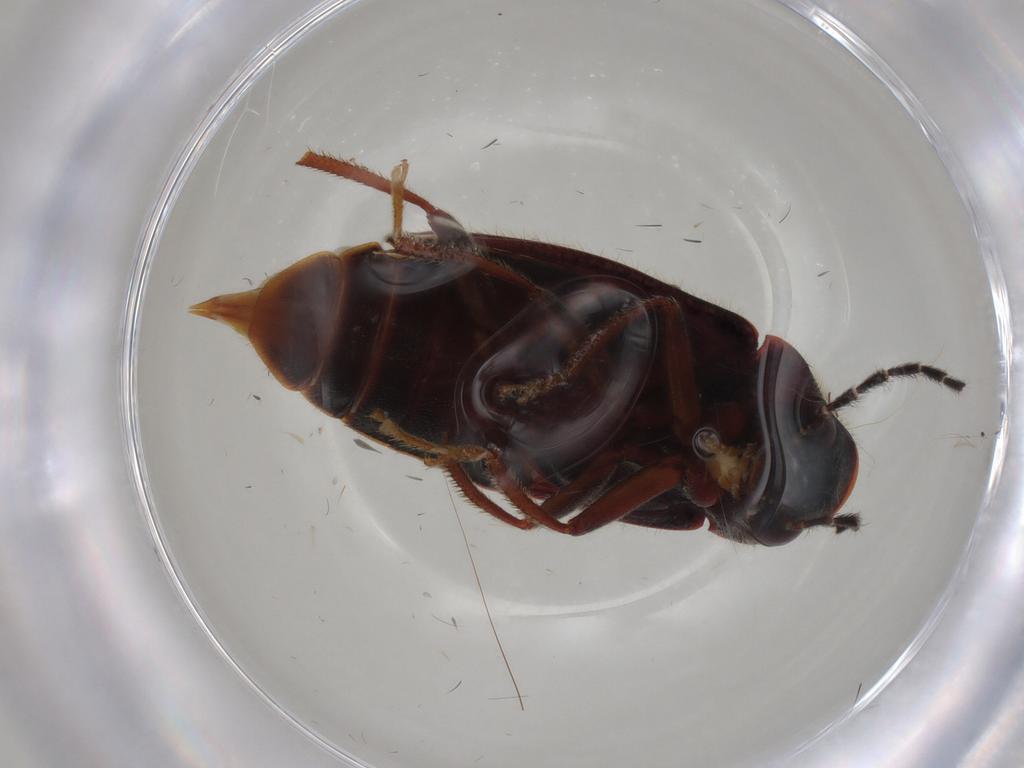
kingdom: Animalia
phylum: Arthropoda
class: Insecta
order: Coleoptera
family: Ptilodactylidae
